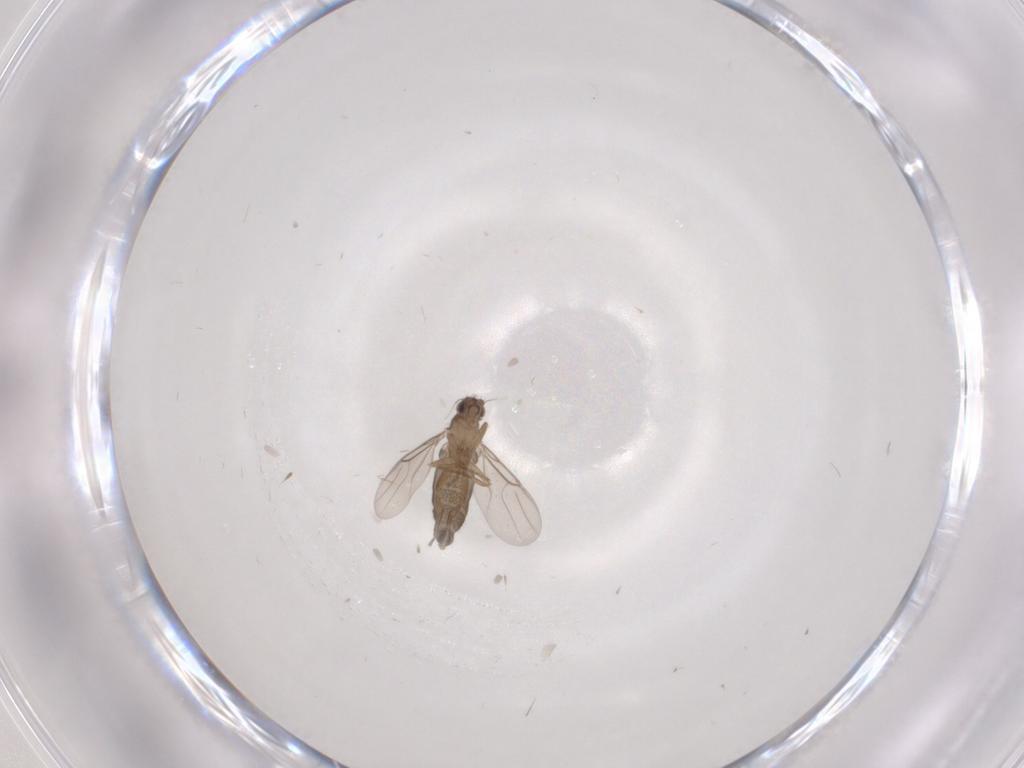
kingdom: Animalia
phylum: Arthropoda
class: Insecta
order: Diptera
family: Phoridae
